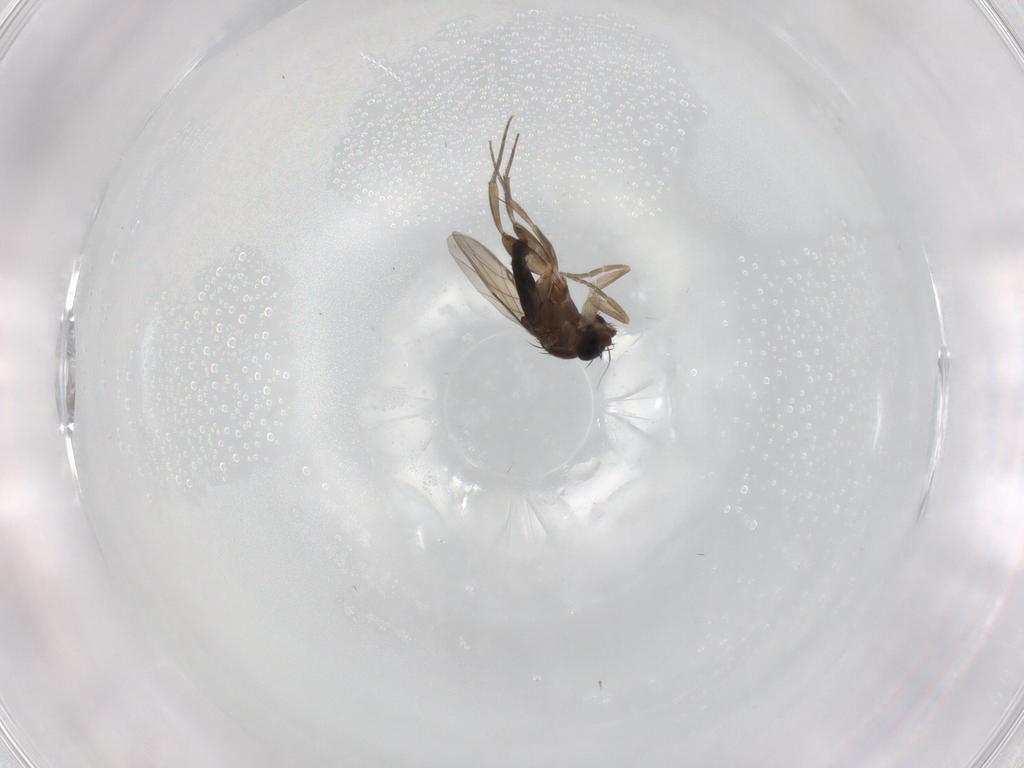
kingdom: Animalia
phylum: Arthropoda
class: Insecta
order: Diptera
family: Phoridae
